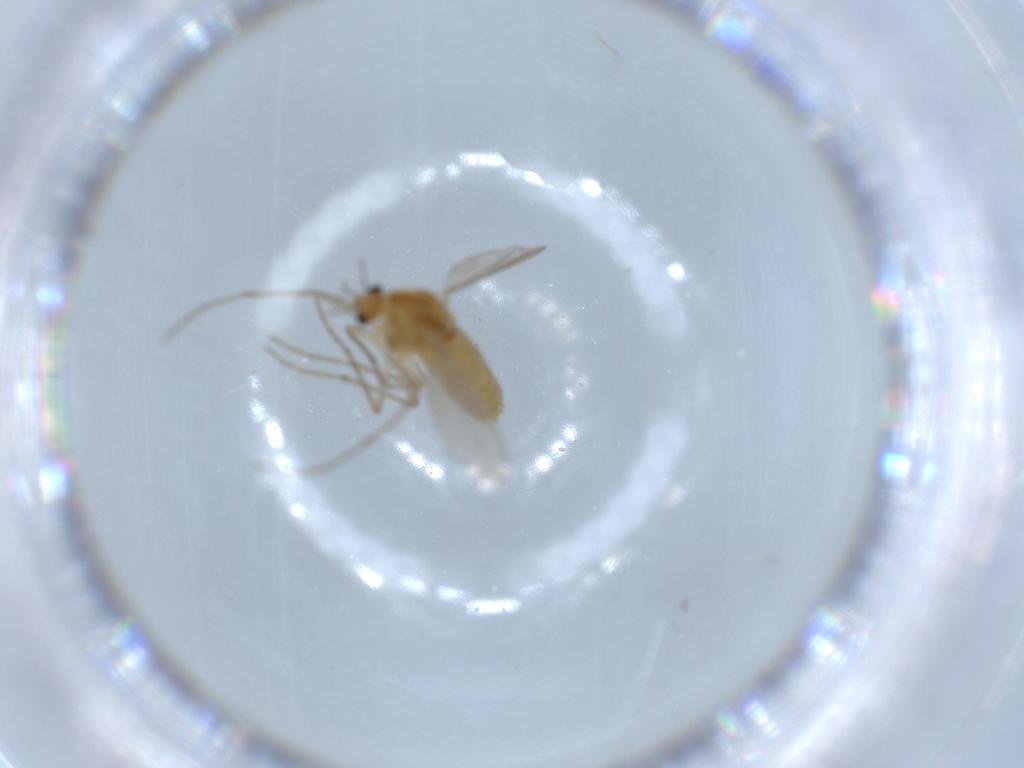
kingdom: Animalia
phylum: Arthropoda
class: Insecta
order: Diptera
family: Chironomidae
